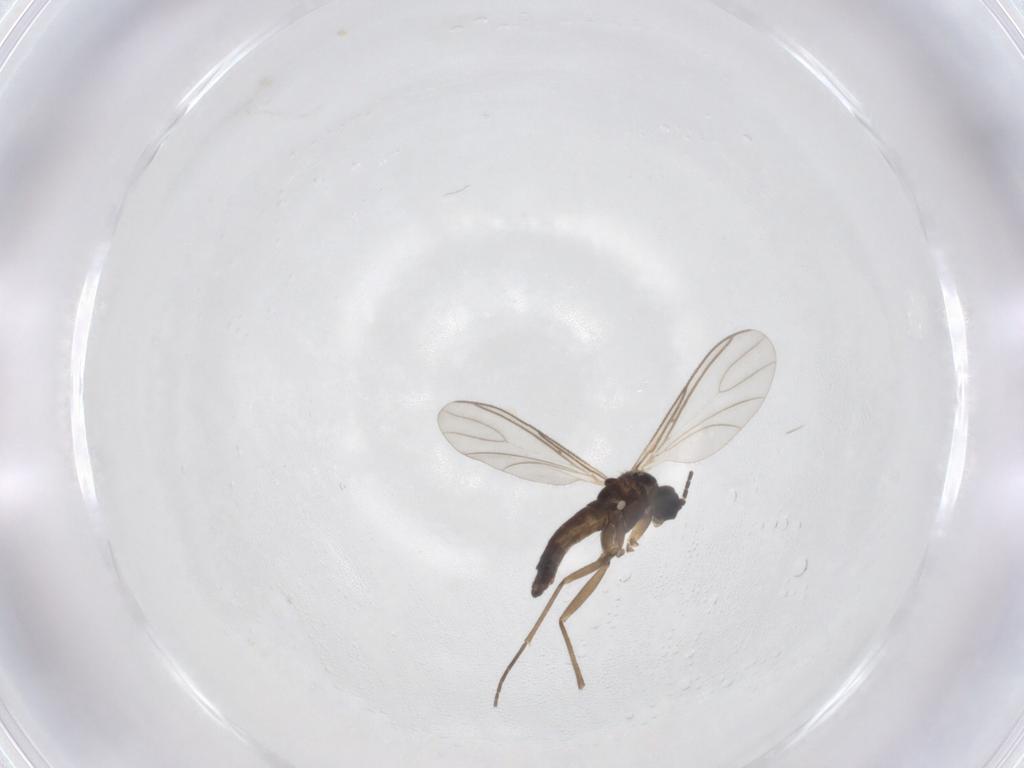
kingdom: Animalia
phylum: Arthropoda
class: Insecta
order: Diptera
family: Sciaridae
